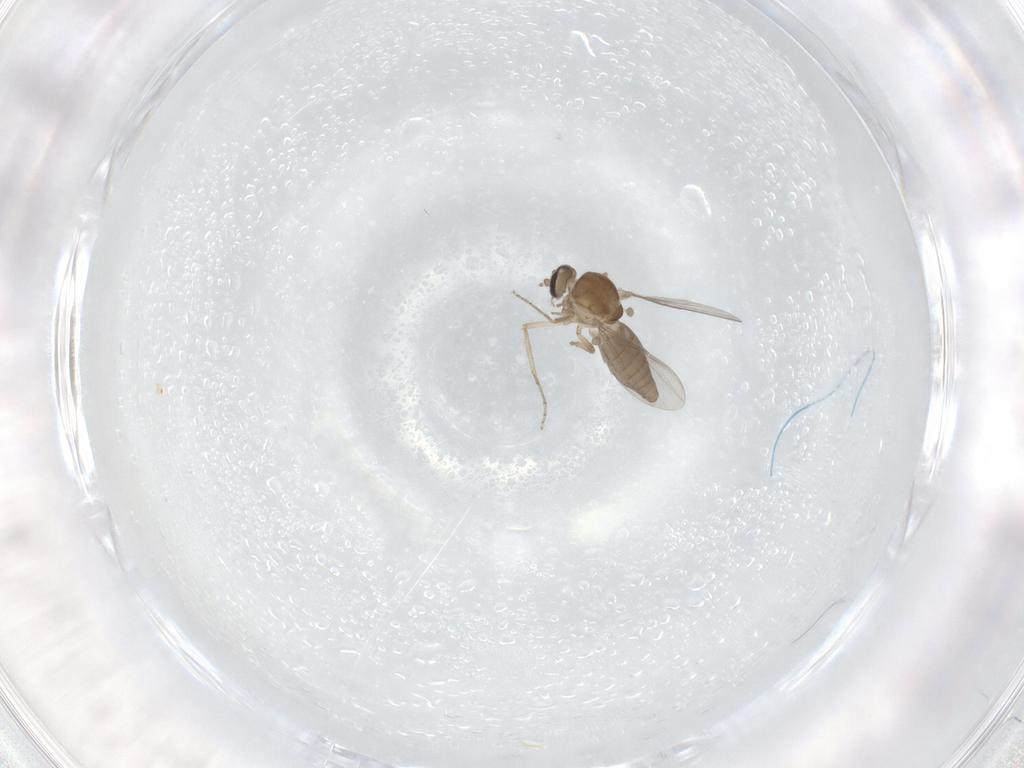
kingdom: Animalia
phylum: Arthropoda
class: Insecta
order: Diptera
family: Ceratopogonidae
